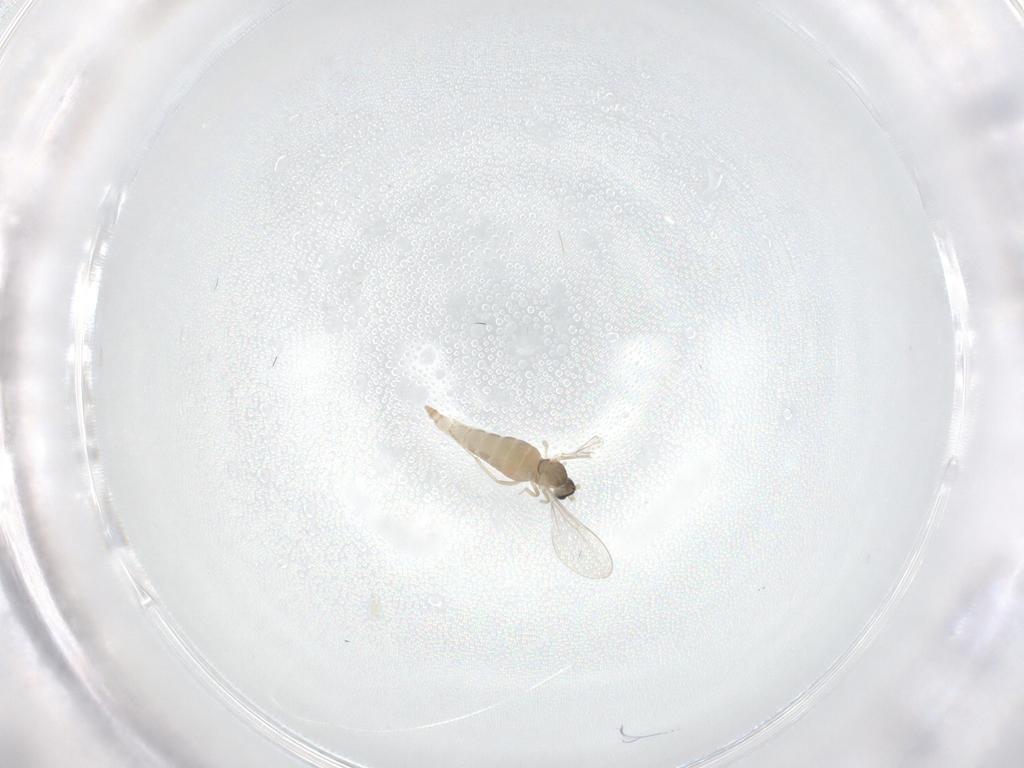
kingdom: Animalia
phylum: Arthropoda
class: Insecta
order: Diptera
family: Cecidomyiidae
